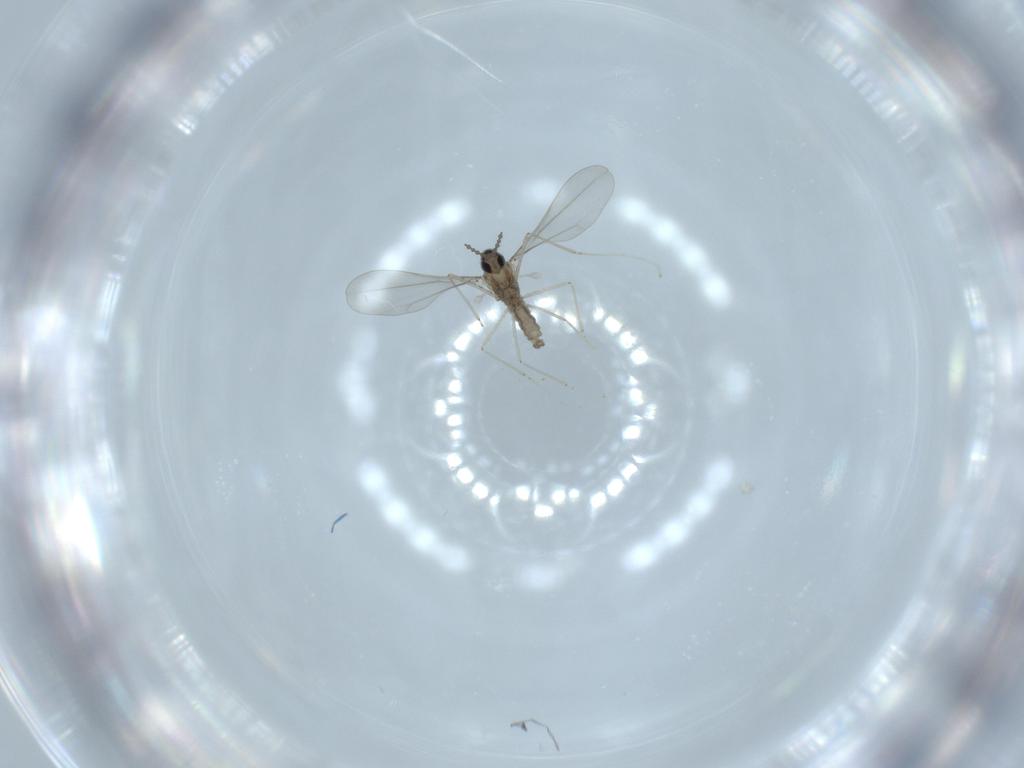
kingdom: Animalia
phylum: Arthropoda
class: Insecta
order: Diptera
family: Cecidomyiidae
